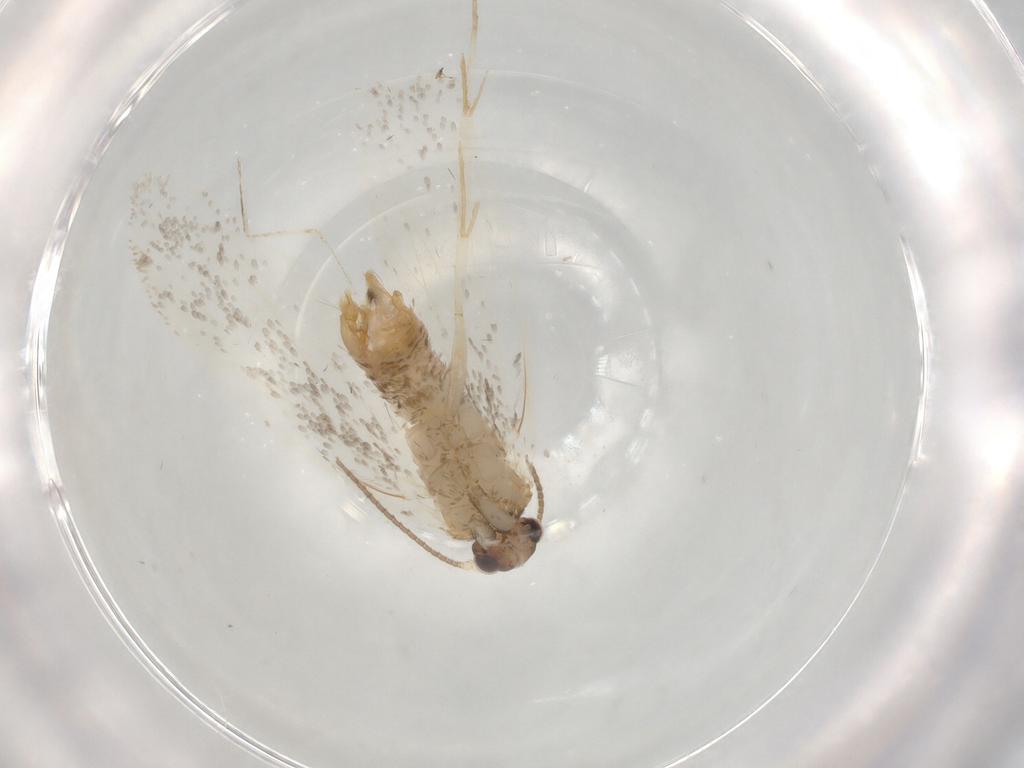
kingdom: Animalia
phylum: Arthropoda
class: Insecta
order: Lepidoptera
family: Dryadaulidae
